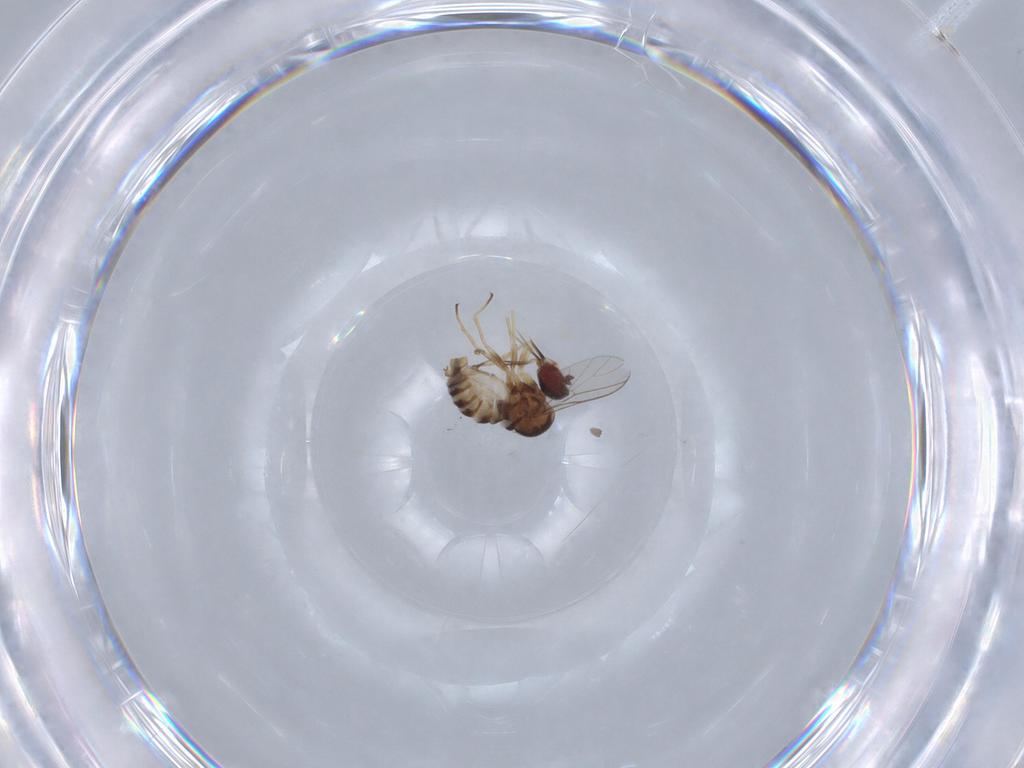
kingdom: Animalia
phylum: Arthropoda
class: Insecta
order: Diptera
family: Mythicomyiidae
